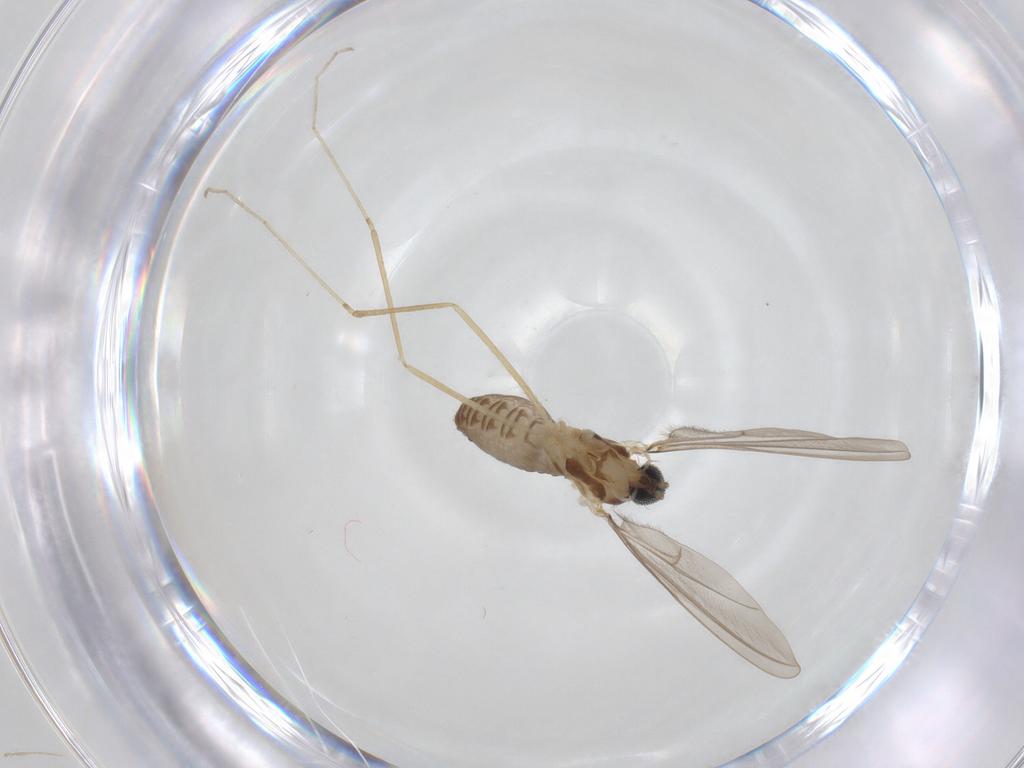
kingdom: Animalia
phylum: Arthropoda
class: Insecta
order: Diptera
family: Cecidomyiidae
